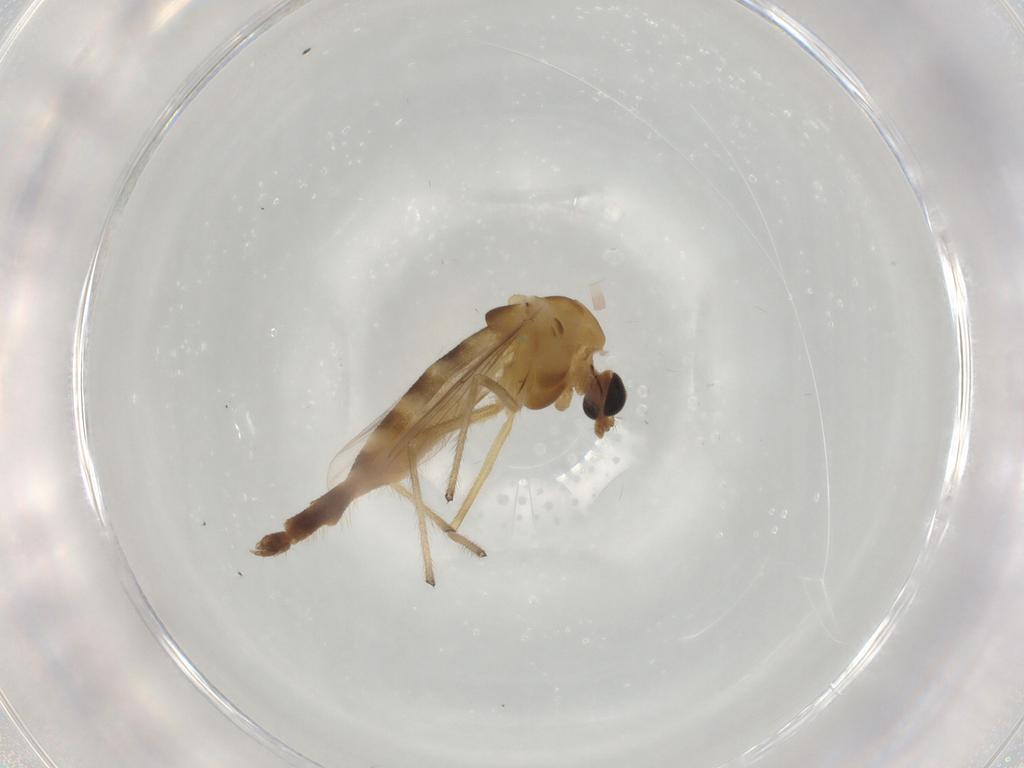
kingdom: Animalia
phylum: Arthropoda
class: Insecta
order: Diptera
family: Chironomidae
